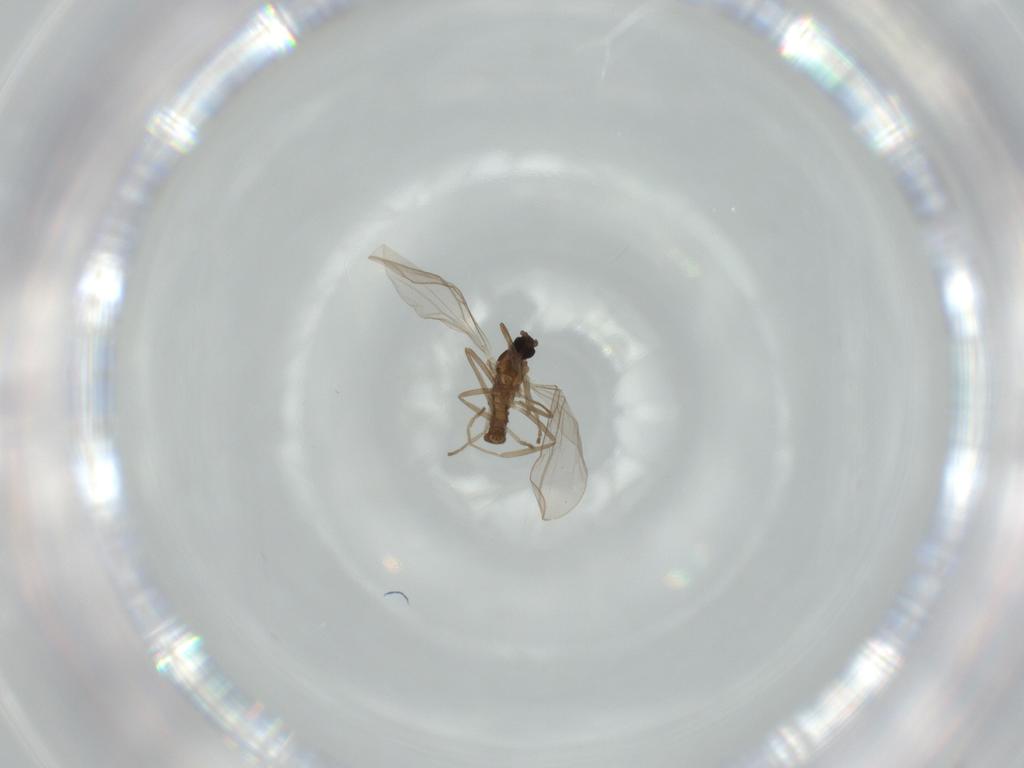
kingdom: Animalia
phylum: Arthropoda
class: Insecta
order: Diptera
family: Cecidomyiidae
